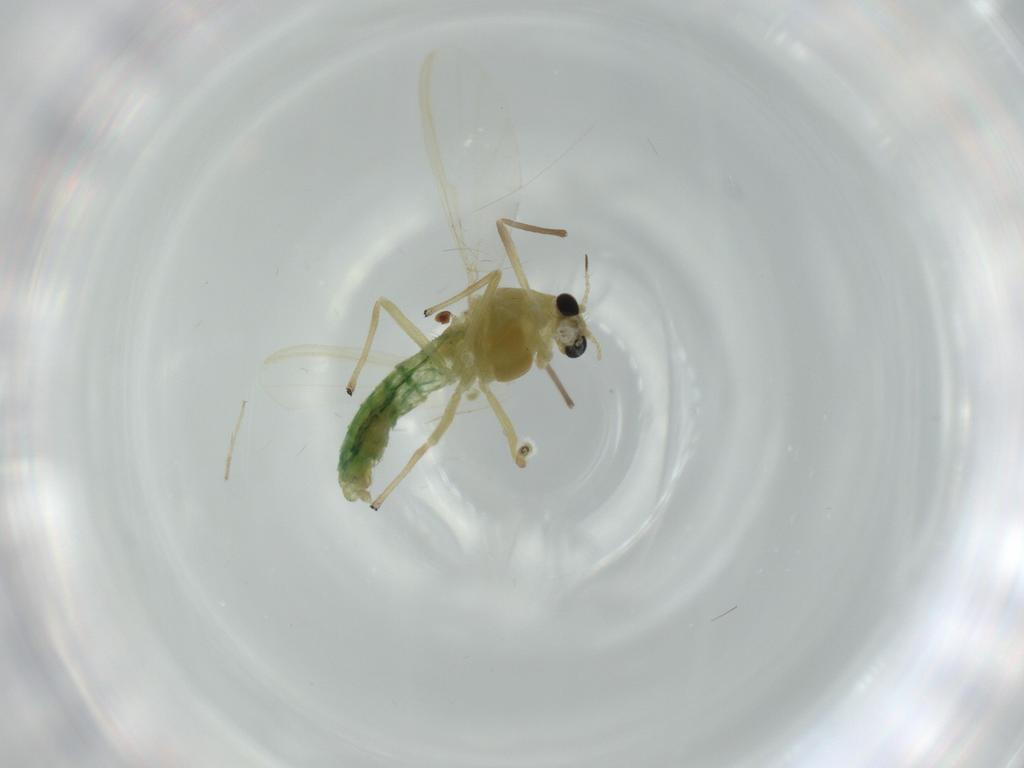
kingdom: Animalia
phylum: Arthropoda
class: Insecta
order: Diptera
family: Chironomidae
